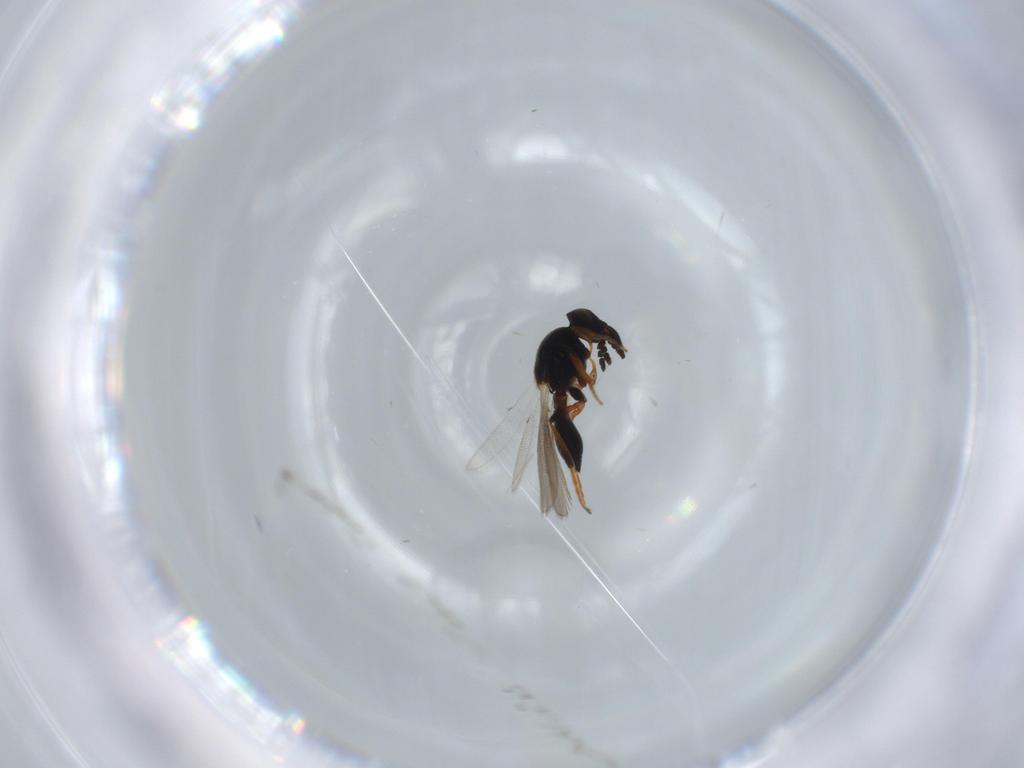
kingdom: Animalia
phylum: Arthropoda
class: Insecta
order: Hymenoptera
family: Platygastridae
